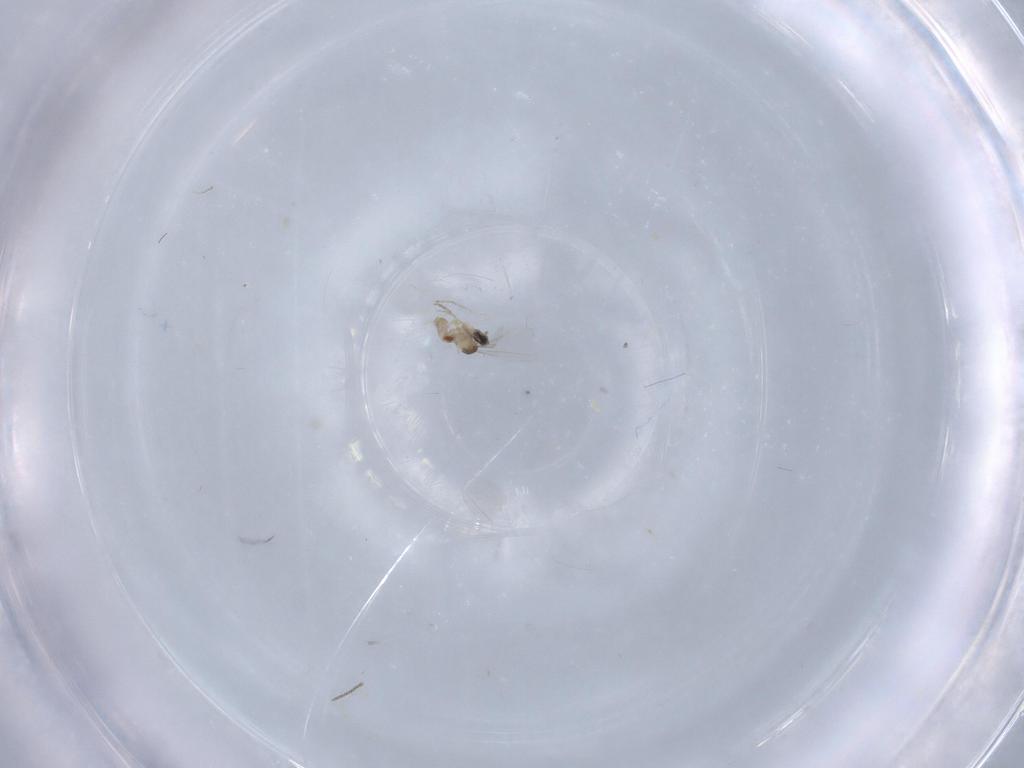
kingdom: Animalia
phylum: Arthropoda
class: Insecta
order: Diptera
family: Cecidomyiidae
